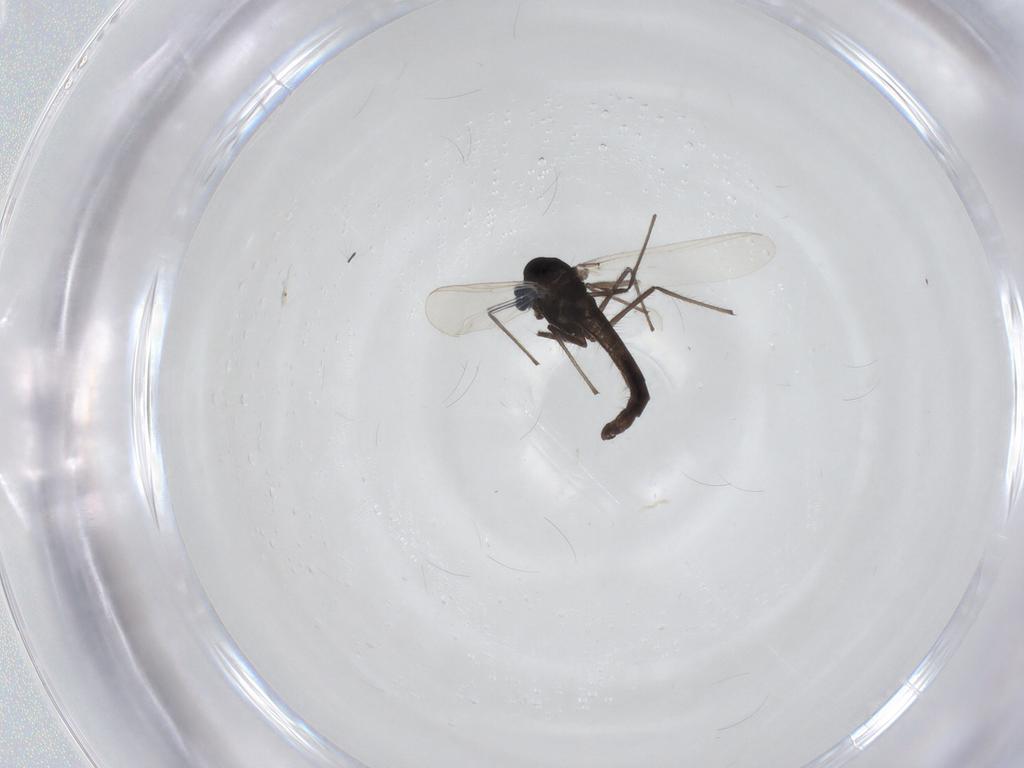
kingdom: Animalia
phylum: Arthropoda
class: Insecta
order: Diptera
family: Chironomidae
